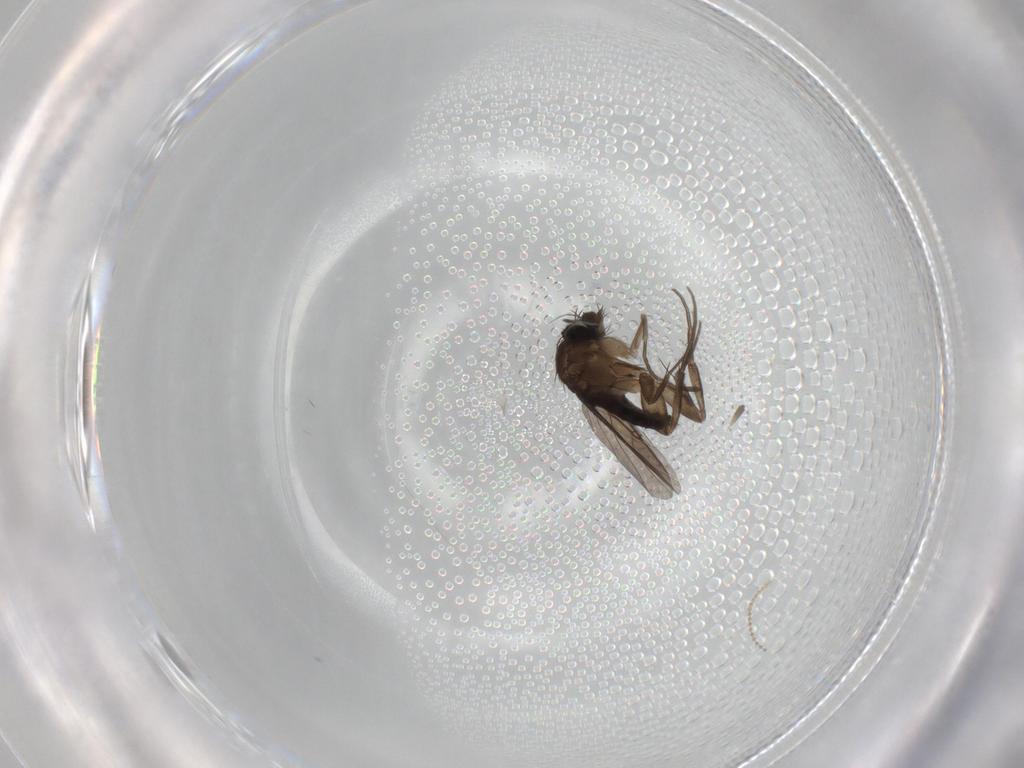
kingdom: Animalia
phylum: Arthropoda
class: Insecta
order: Diptera
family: Phoridae
